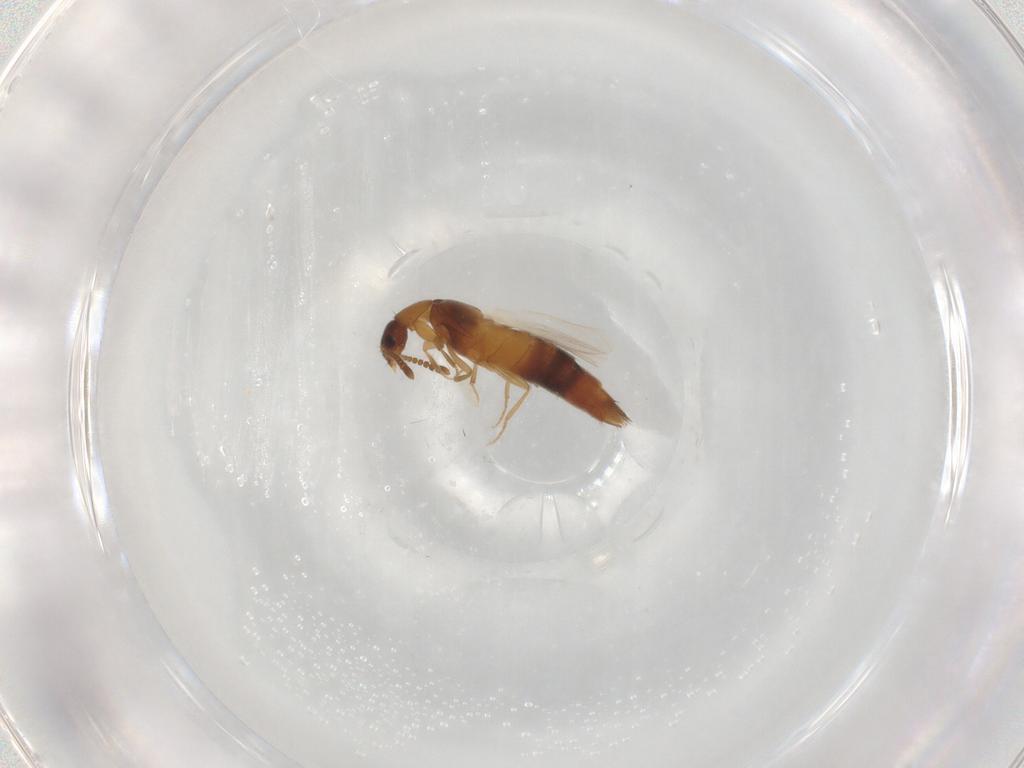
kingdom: Animalia
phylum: Arthropoda
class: Insecta
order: Coleoptera
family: Staphylinidae
